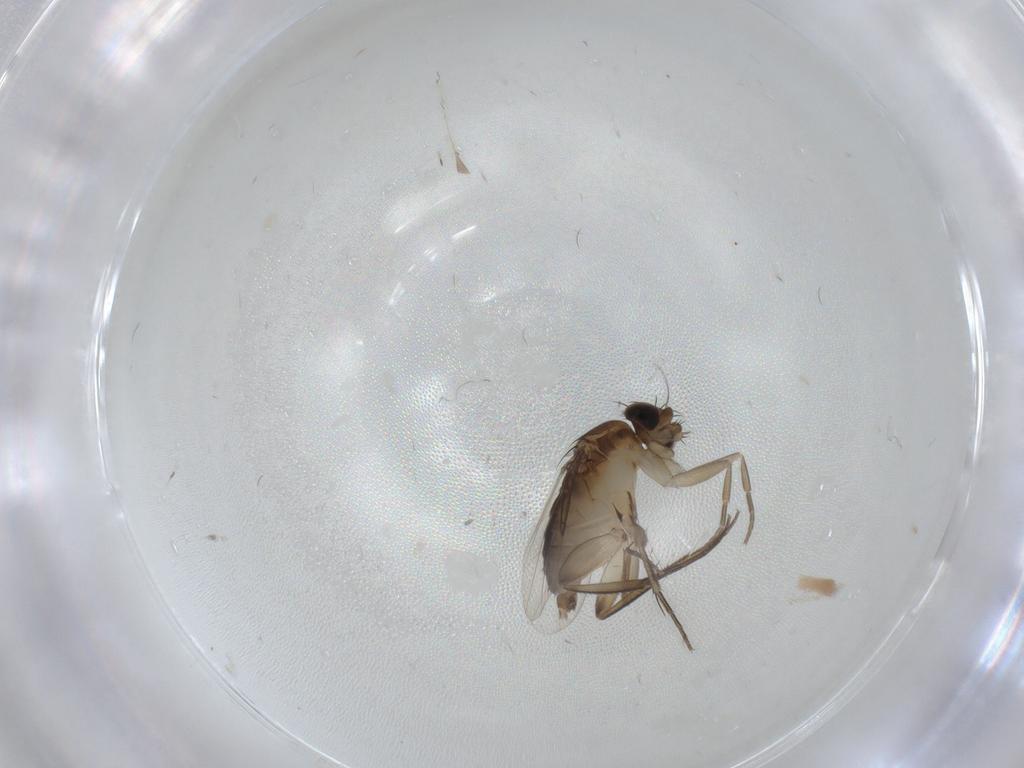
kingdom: Animalia
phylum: Arthropoda
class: Insecta
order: Diptera
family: Phoridae
